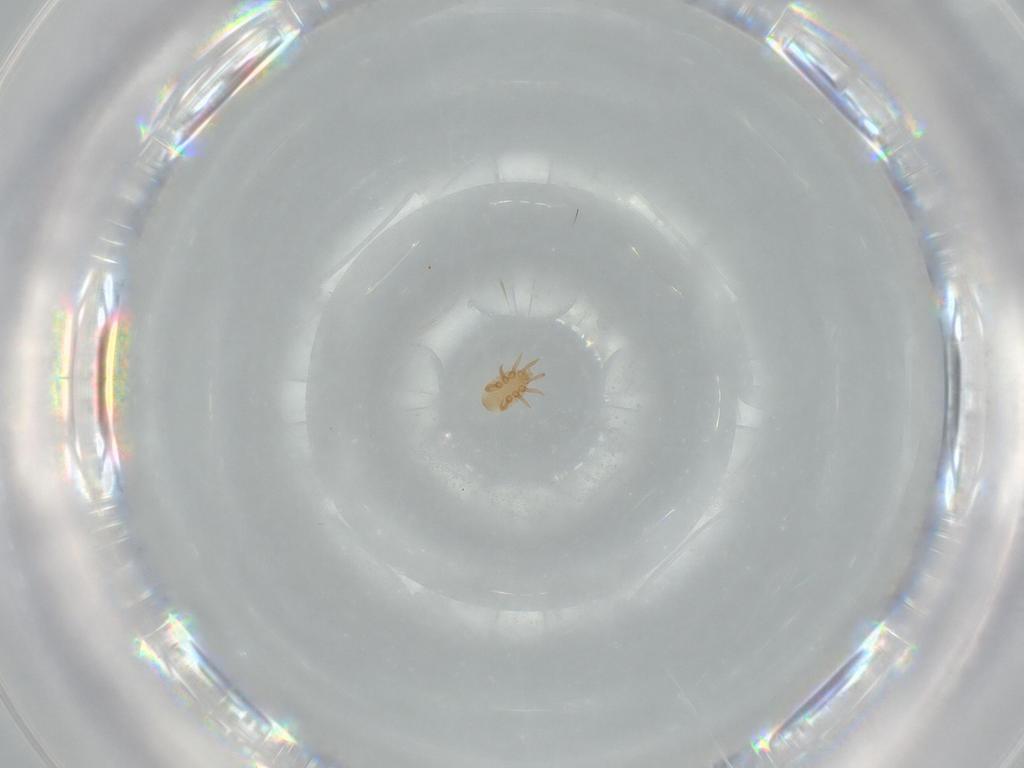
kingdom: Animalia
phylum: Arthropoda
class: Arachnida
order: Mesostigmata
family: Dinychidae
